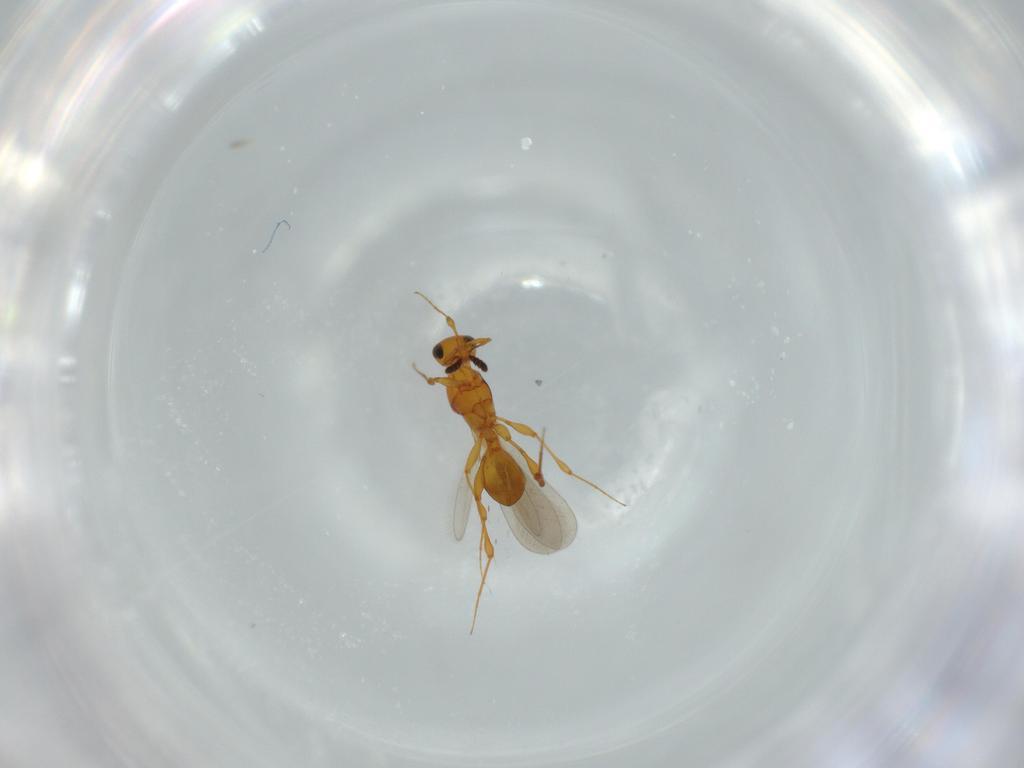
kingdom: Animalia
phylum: Arthropoda
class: Insecta
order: Hymenoptera
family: Platygastridae
